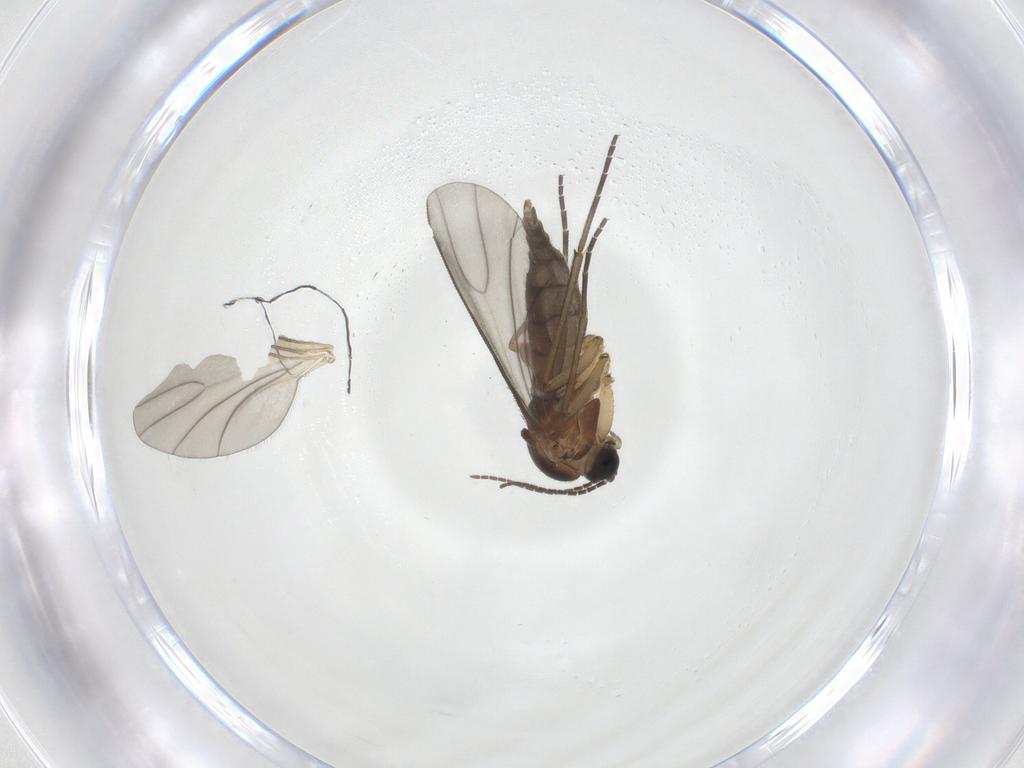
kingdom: Animalia
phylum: Arthropoda
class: Insecta
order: Diptera
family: Sciaridae
